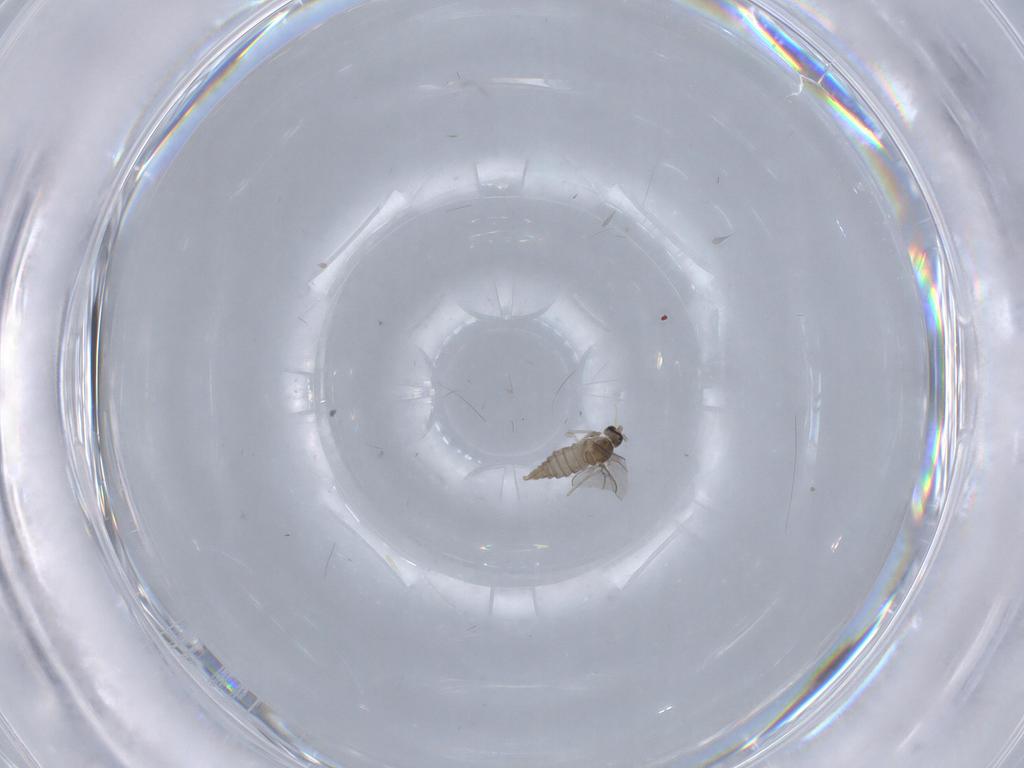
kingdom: Animalia
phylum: Arthropoda
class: Insecta
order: Diptera
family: Cecidomyiidae
